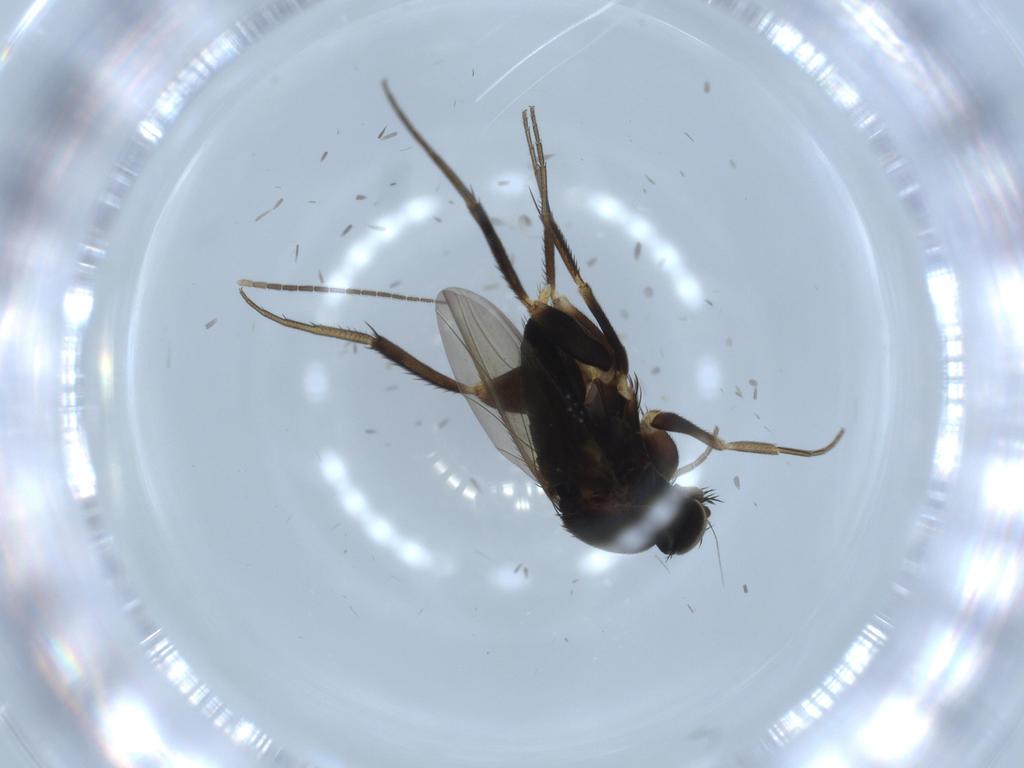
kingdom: Animalia
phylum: Arthropoda
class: Insecta
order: Diptera
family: Phoridae
